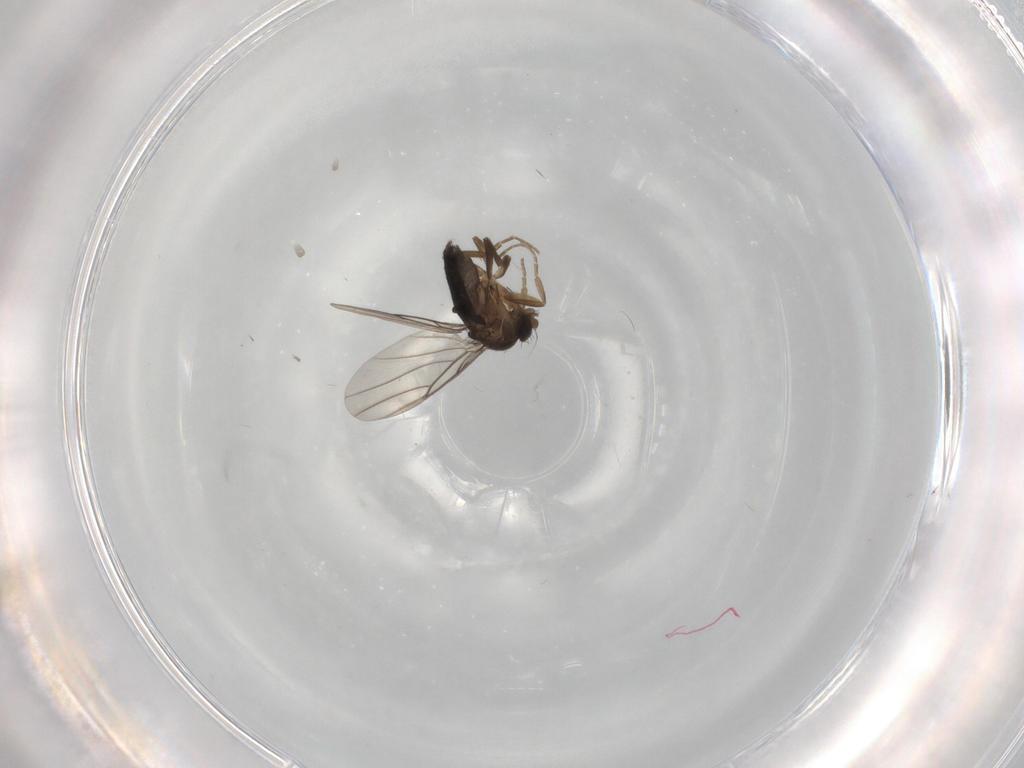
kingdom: Animalia
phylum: Arthropoda
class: Insecta
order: Diptera
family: Phoridae
